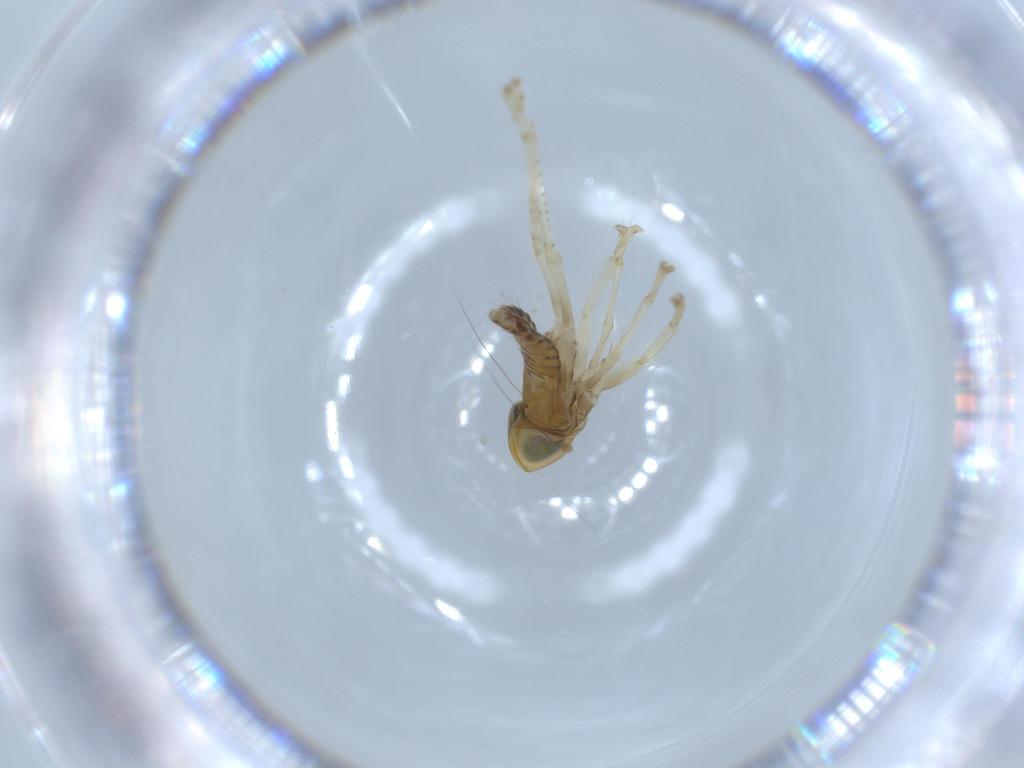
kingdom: Animalia
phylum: Arthropoda
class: Insecta
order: Hemiptera
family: Cicadellidae
